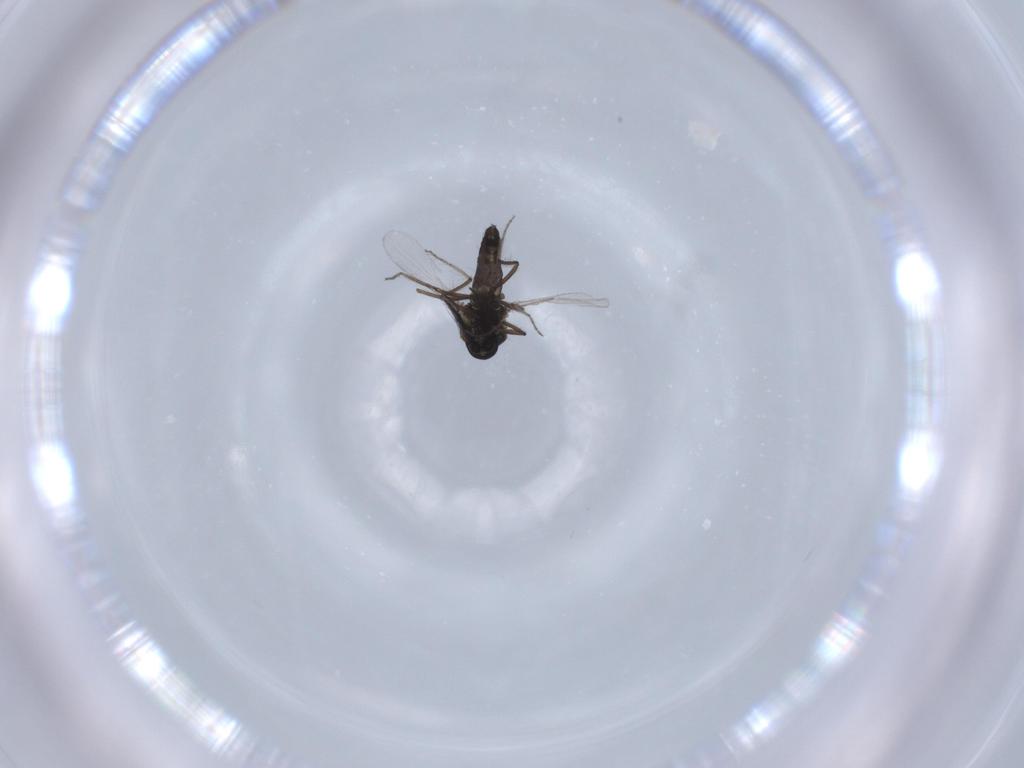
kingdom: Animalia
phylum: Arthropoda
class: Insecta
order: Diptera
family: Ceratopogonidae
